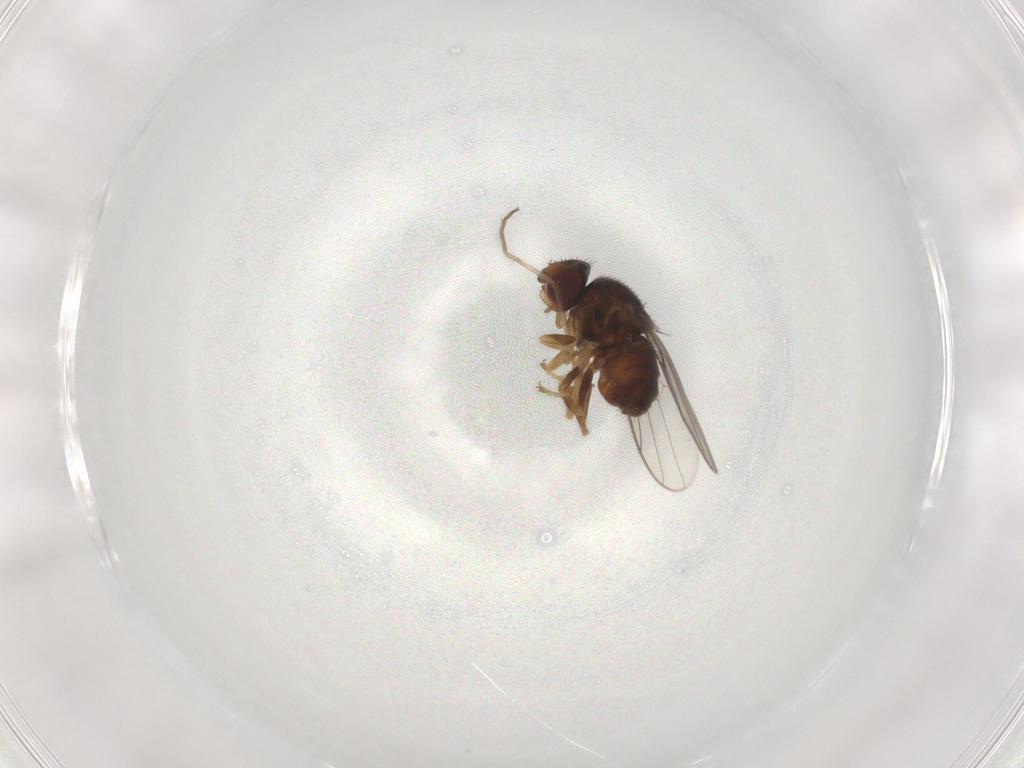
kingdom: Animalia
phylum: Arthropoda
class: Insecta
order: Diptera
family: Chloropidae
